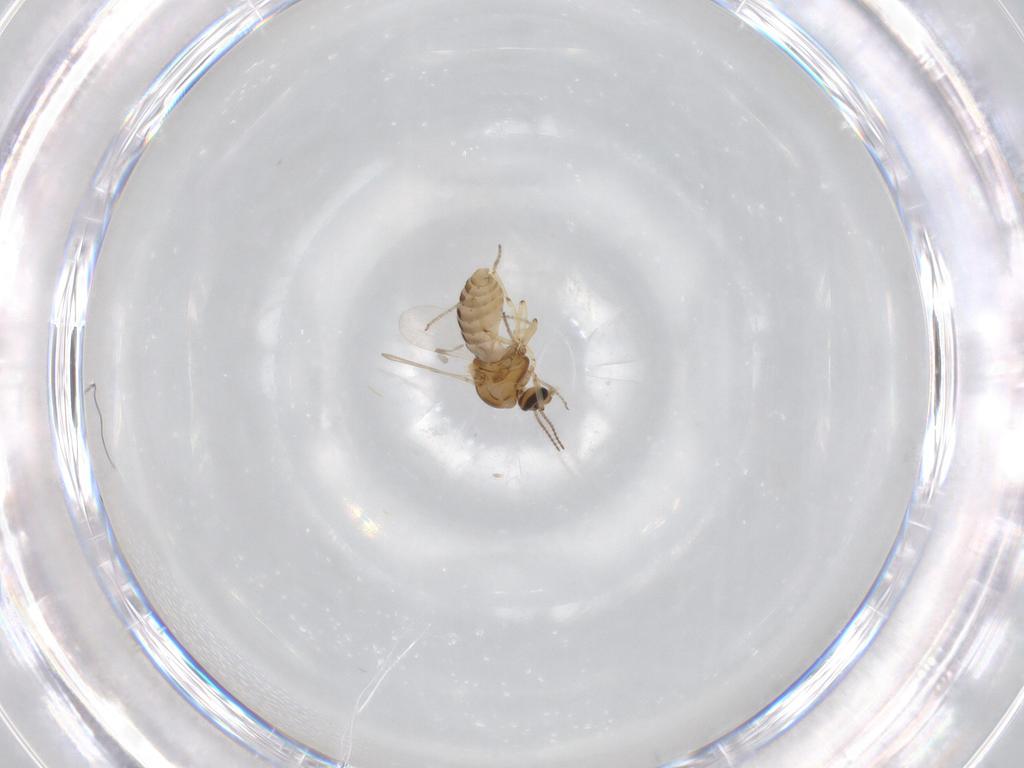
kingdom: Animalia
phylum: Arthropoda
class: Insecta
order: Diptera
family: Ceratopogonidae
